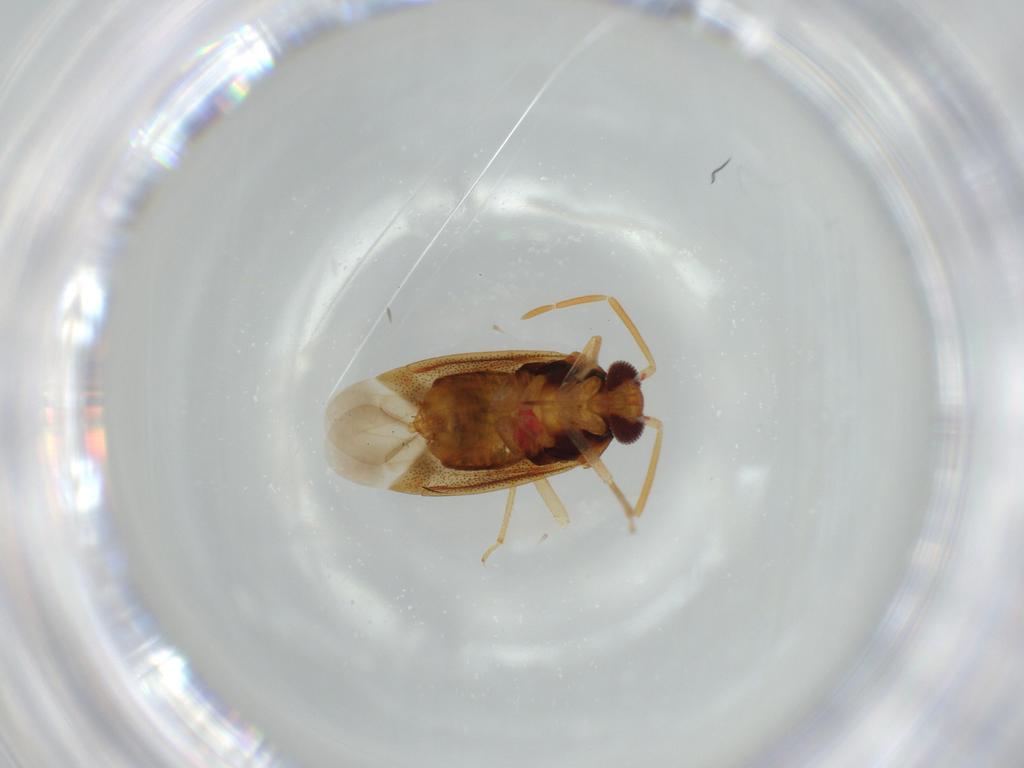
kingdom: Animalia
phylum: Arthropoda
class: Insecta
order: Hemiptera
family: Miridae
